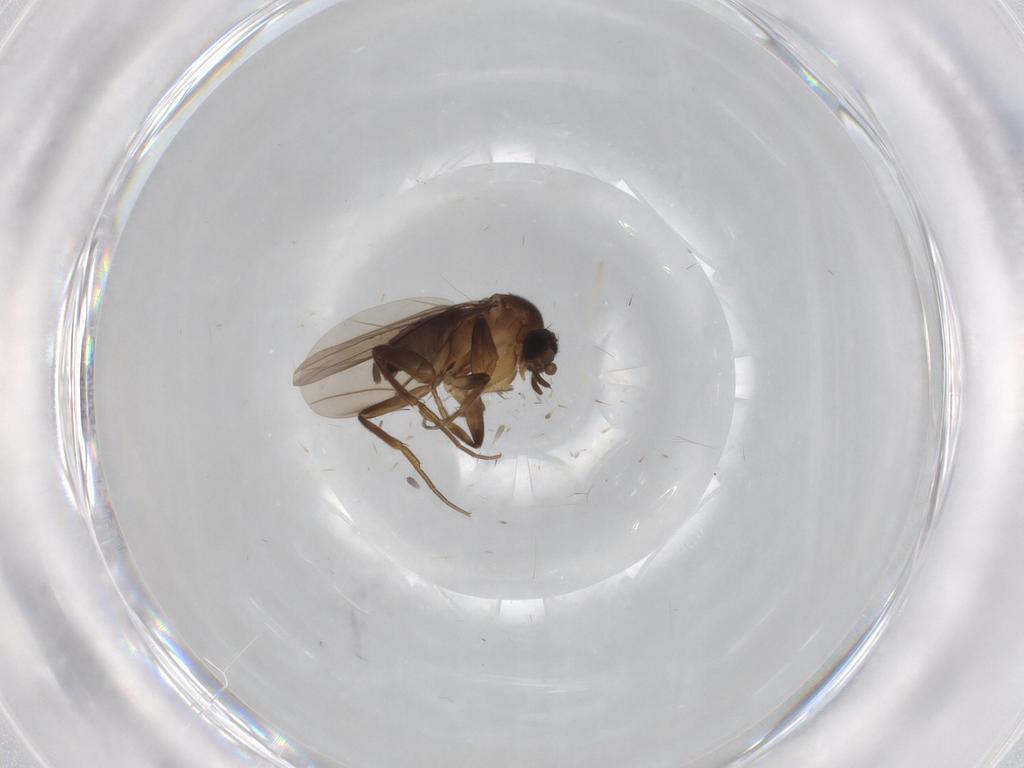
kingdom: Animalia
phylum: Arthropoda
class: Insecta
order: Diptera
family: Chironomidae
